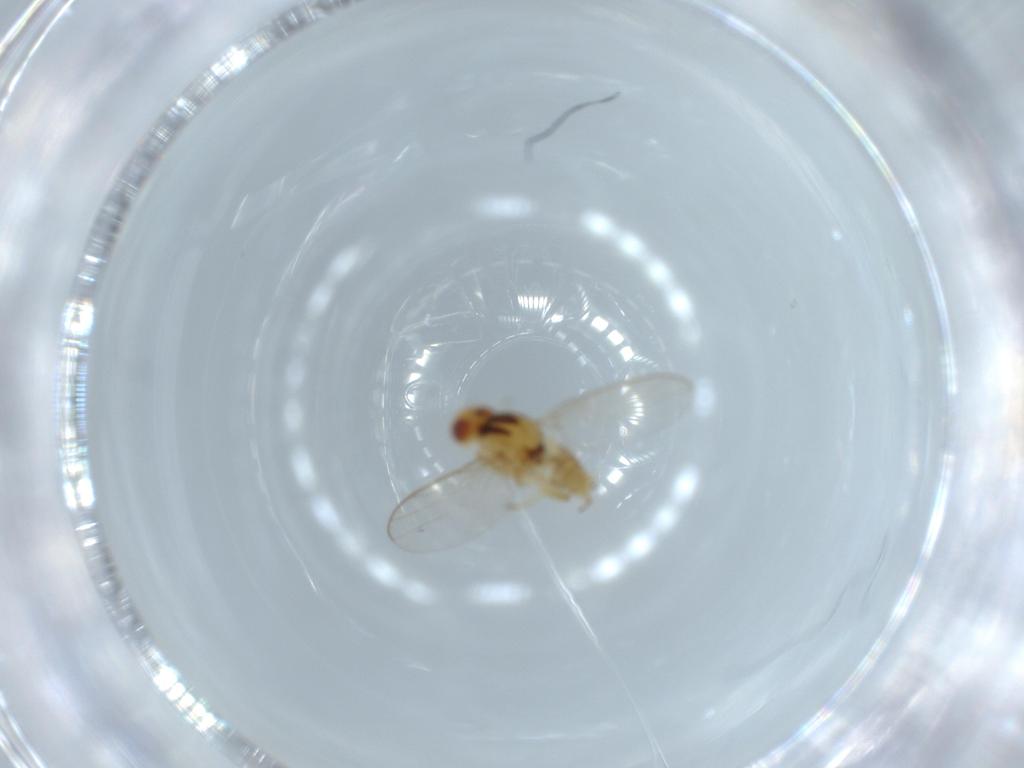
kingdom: Animalia
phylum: Arthropoda
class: Insecta
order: Diptera
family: Chloropidae
